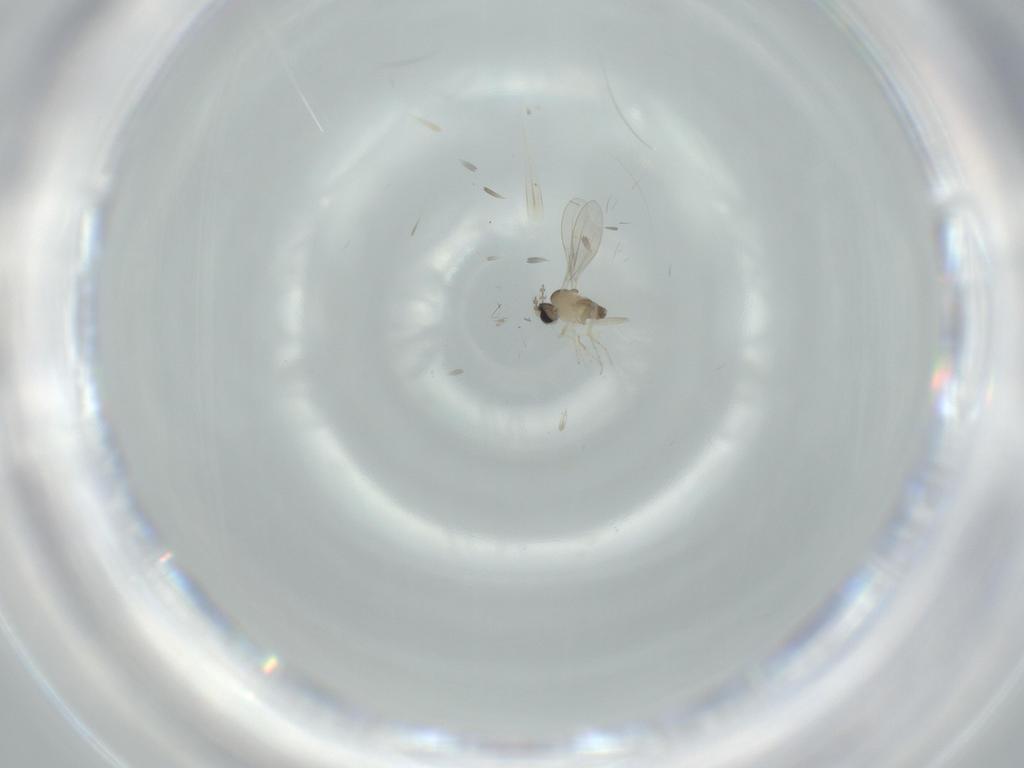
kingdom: Animalia
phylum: Arthropoda
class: Insecta
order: Diptera
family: Cecidomyiidae
